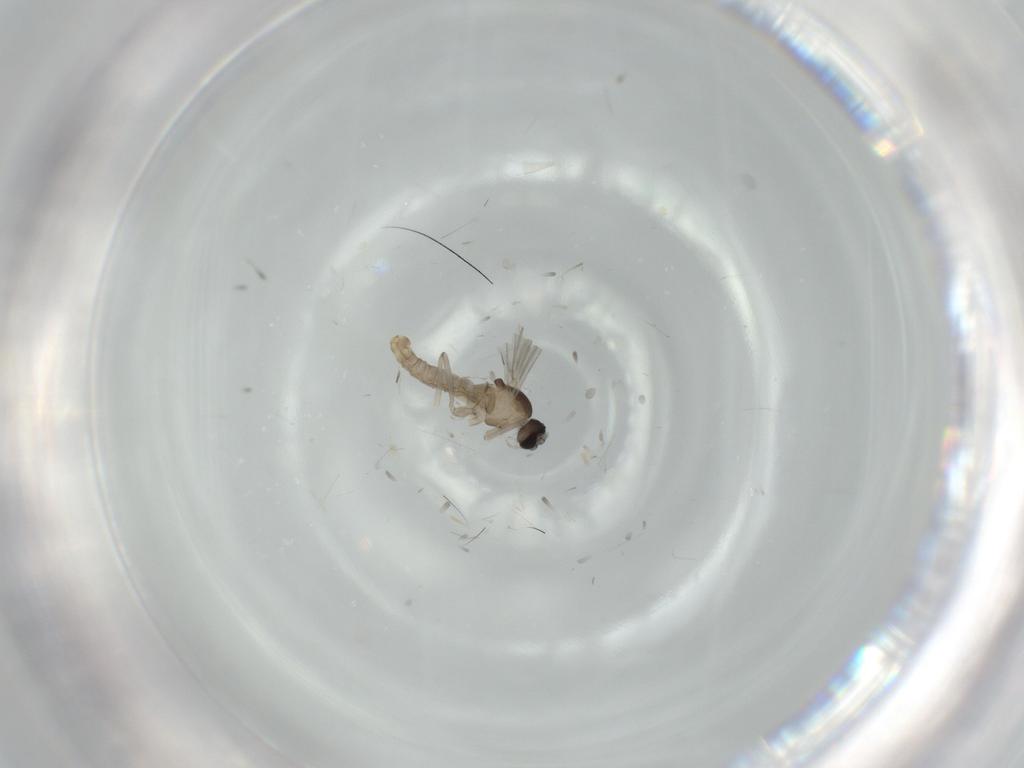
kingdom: Animalia
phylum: Arthropoda
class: Insecta
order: Diptera
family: Cecidomyiidae
